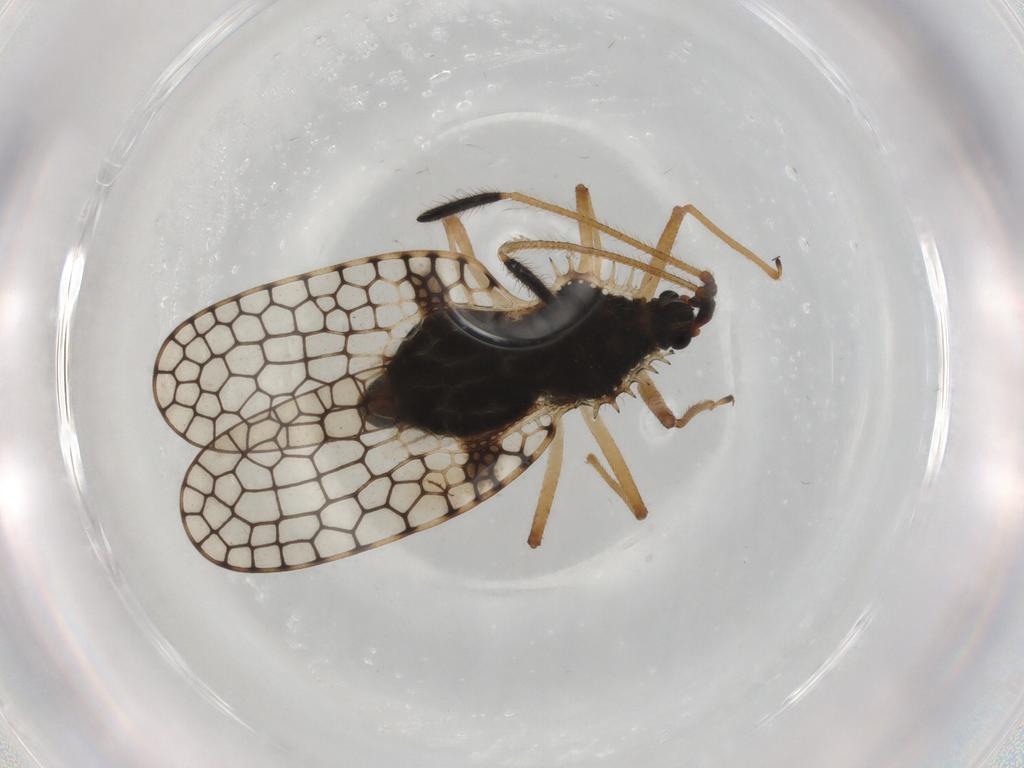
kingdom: Animalia
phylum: Arthropoda
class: Insecta
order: Hemiptera
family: Tingidae
